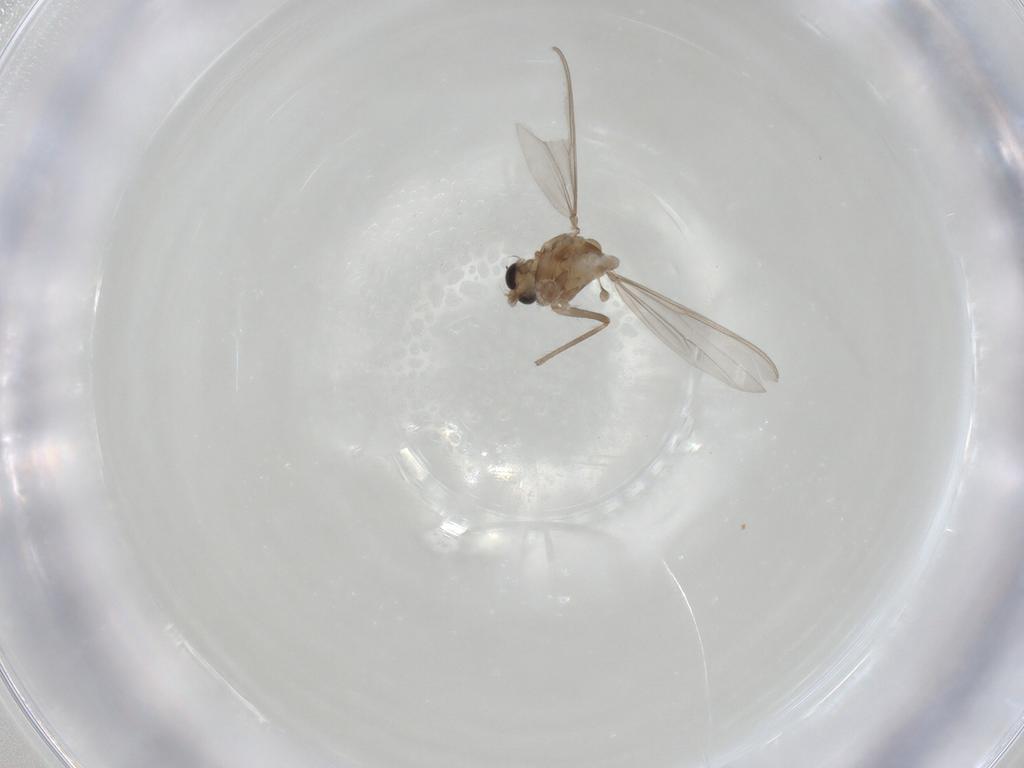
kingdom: Animalia
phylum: Arthropoda
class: Insecta
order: Diptera
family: Chironomidae
